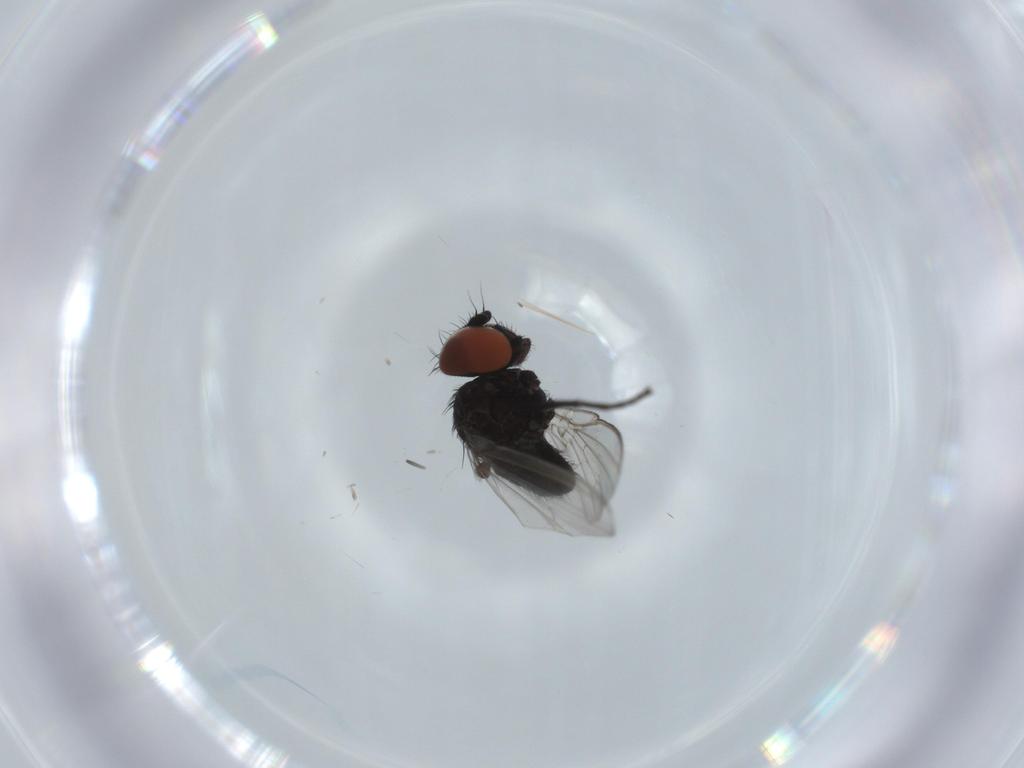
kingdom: Animalia
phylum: Arthropoda
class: Insecta
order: Diptera
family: Milichiidae
